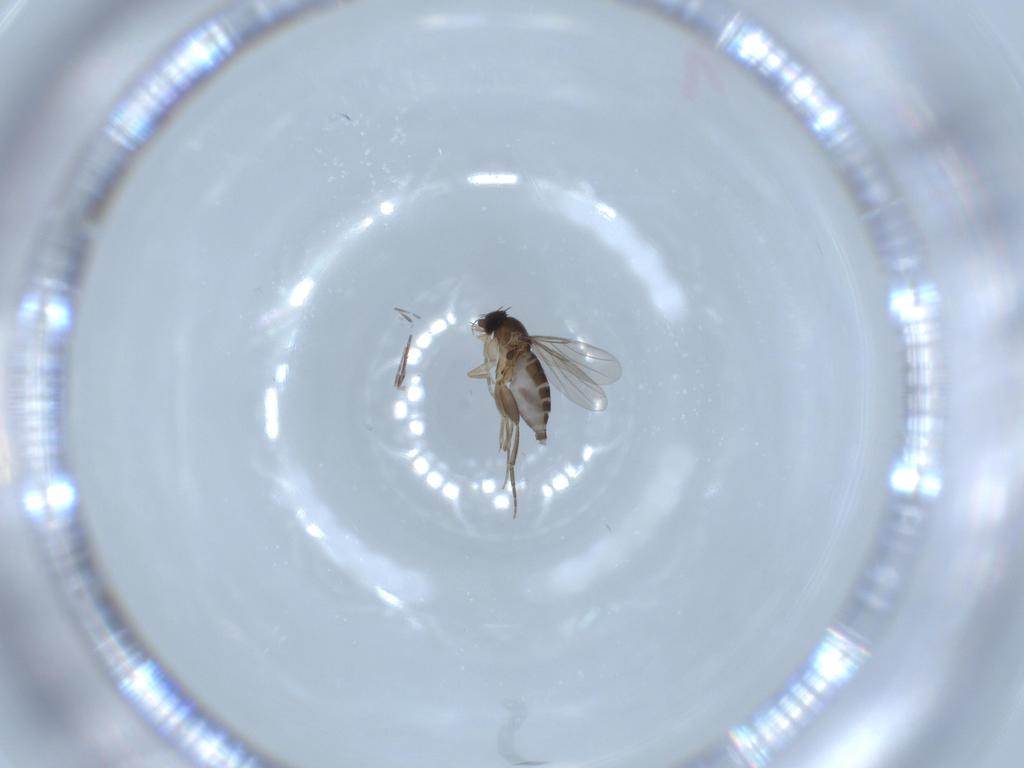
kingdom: Animalia
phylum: Arthropoda
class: Insecta
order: Diptera
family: Phoridae
